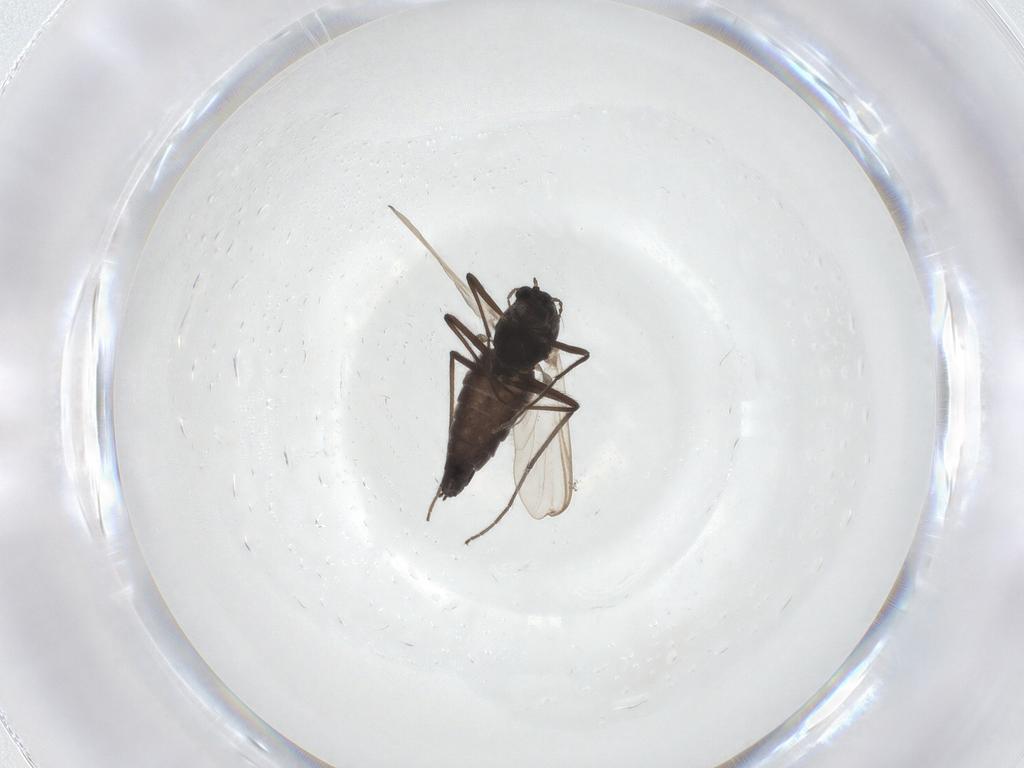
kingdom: Animalia
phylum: Arthropoda
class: Insecta
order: Diptera
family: Chironomidae
